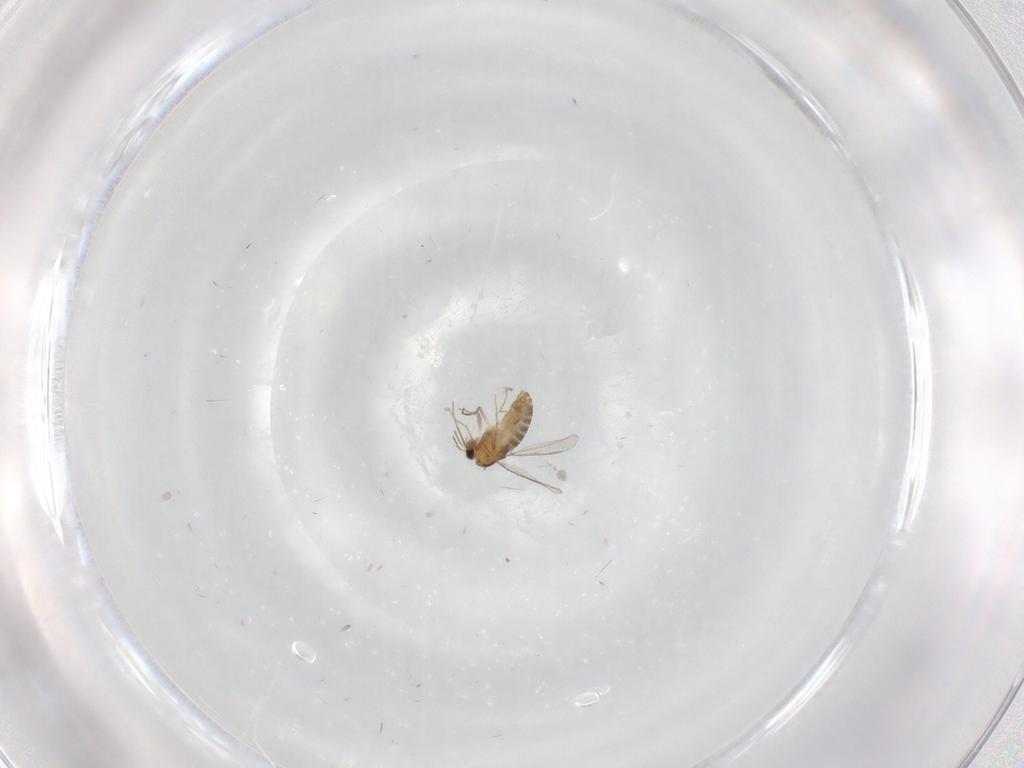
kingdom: Animalia
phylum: Arthropoda
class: Insecta
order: Diptera
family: Chironomidae
